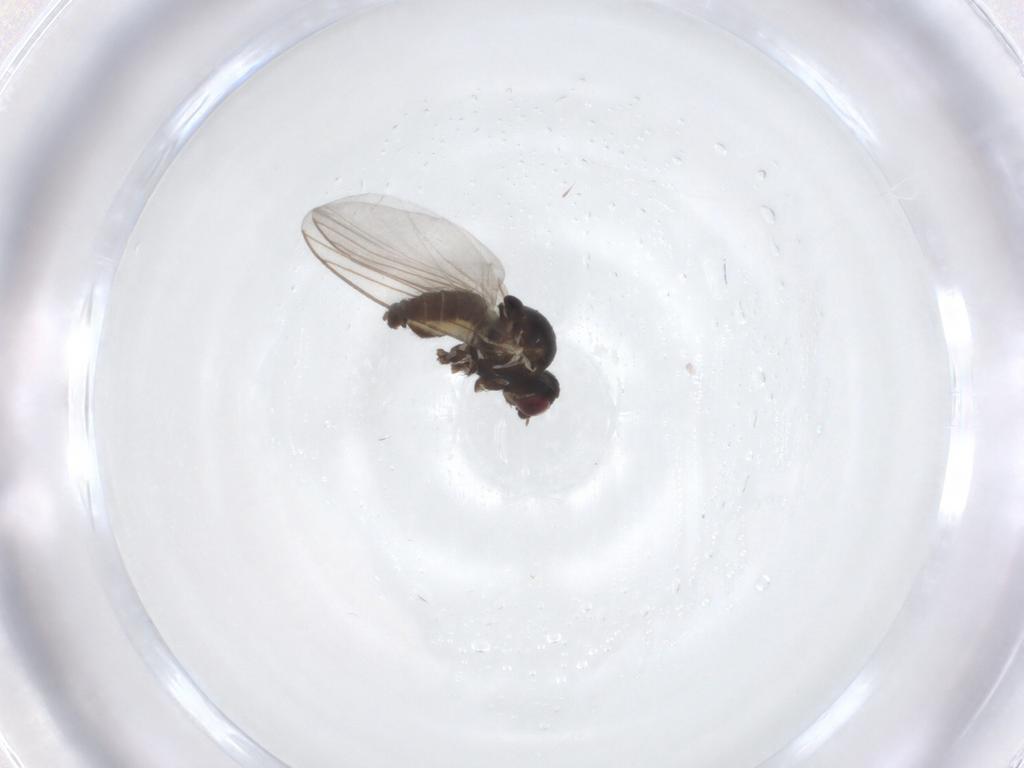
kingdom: Animalia
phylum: Arthropoda
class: Insecta
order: Diptera
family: Agromyzidae
